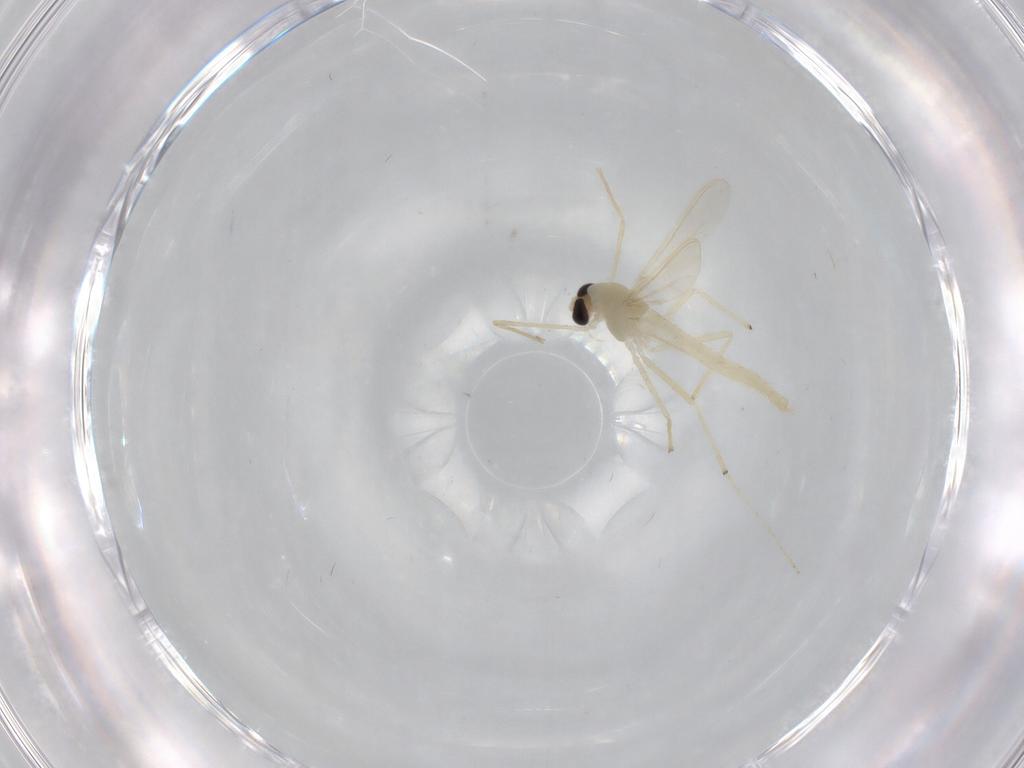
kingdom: Animalia
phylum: Arthropoda
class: Insecta
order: Diptera
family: Chironomidae
